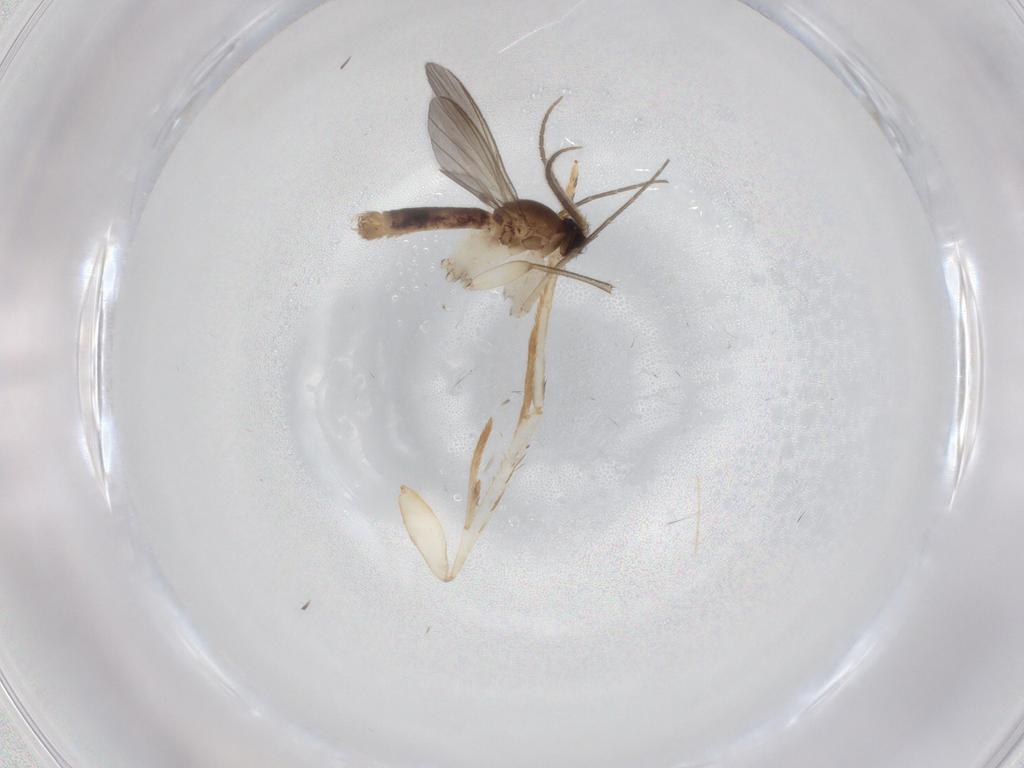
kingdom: Animalia
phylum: Arthropoda
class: Insecta
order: Diptera
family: Mycetophilidae
